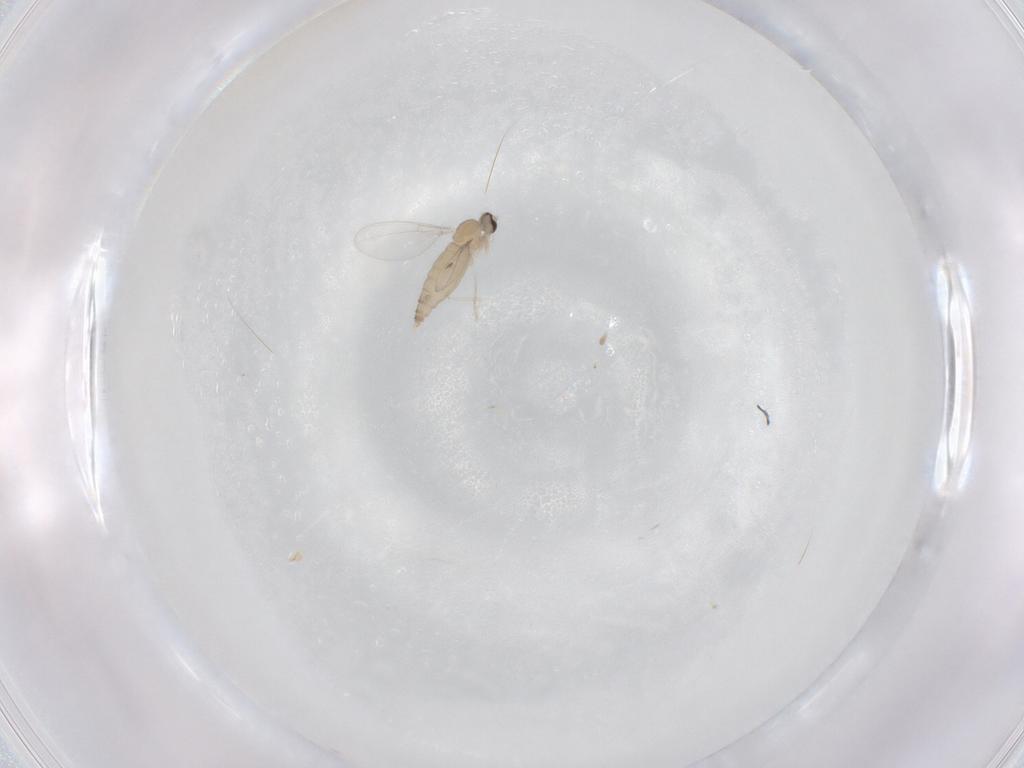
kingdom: Animalia
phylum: Arthropoda
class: Insecta
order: Diptera
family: Cecidomyiidae
